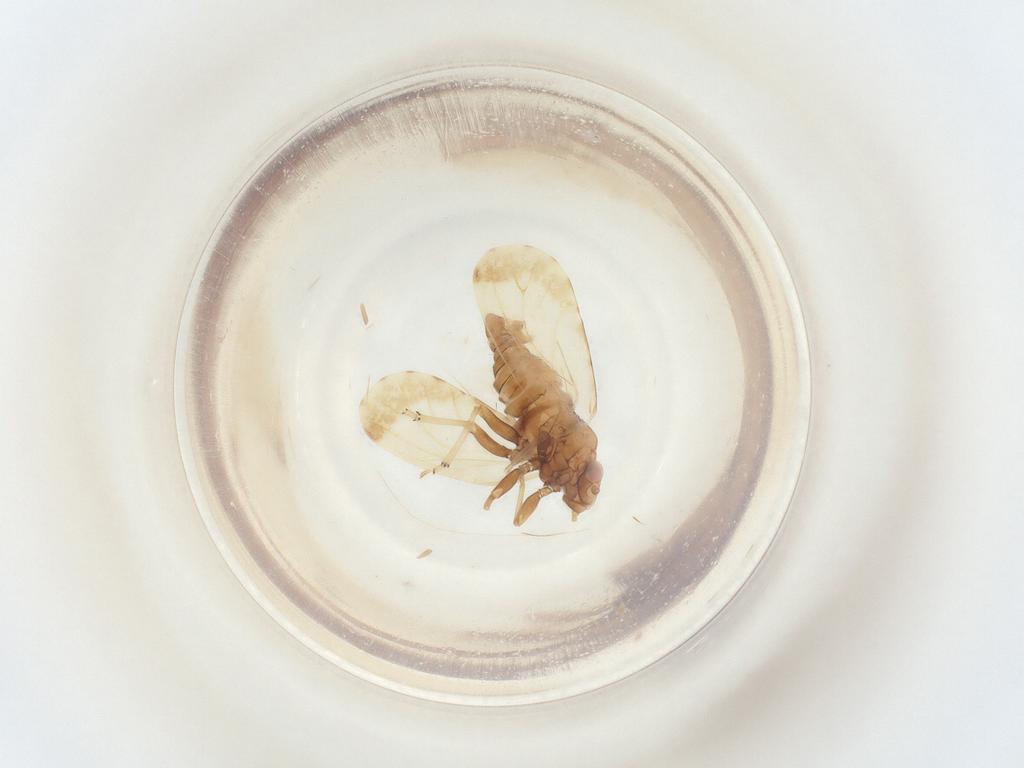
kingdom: Animalia
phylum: Arthropoda
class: Insecta
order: Hemiptera
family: Psyllidae
